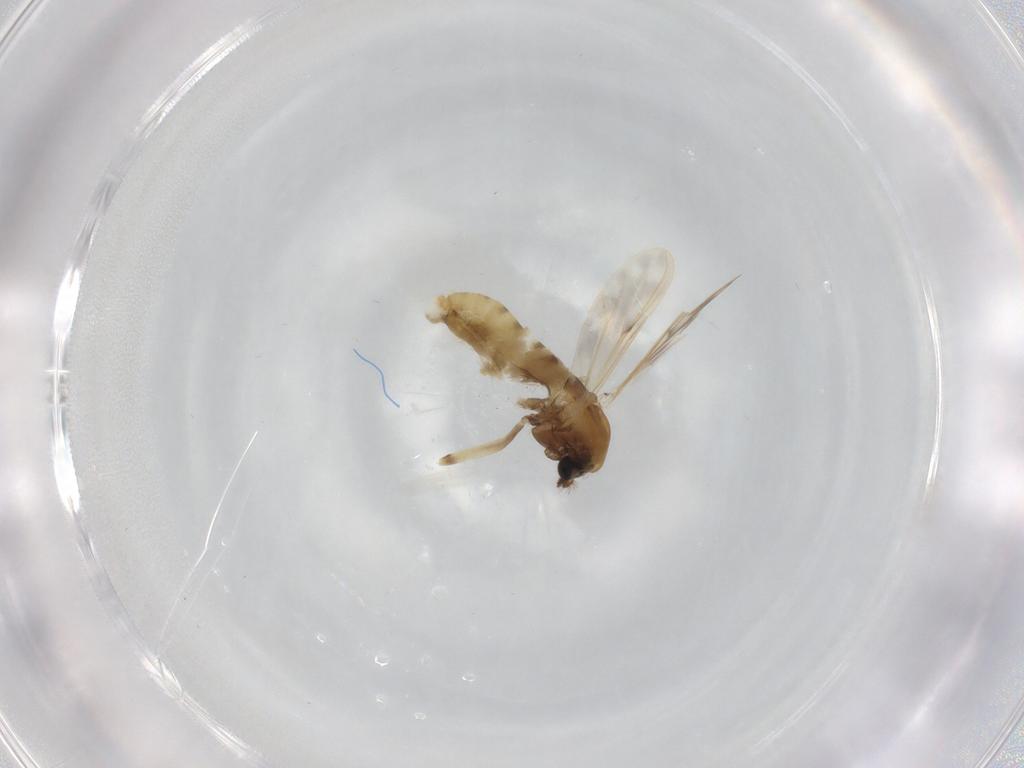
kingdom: Animalia
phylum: Arthropoda
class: Insecta
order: Diptera
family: Chironomidae
